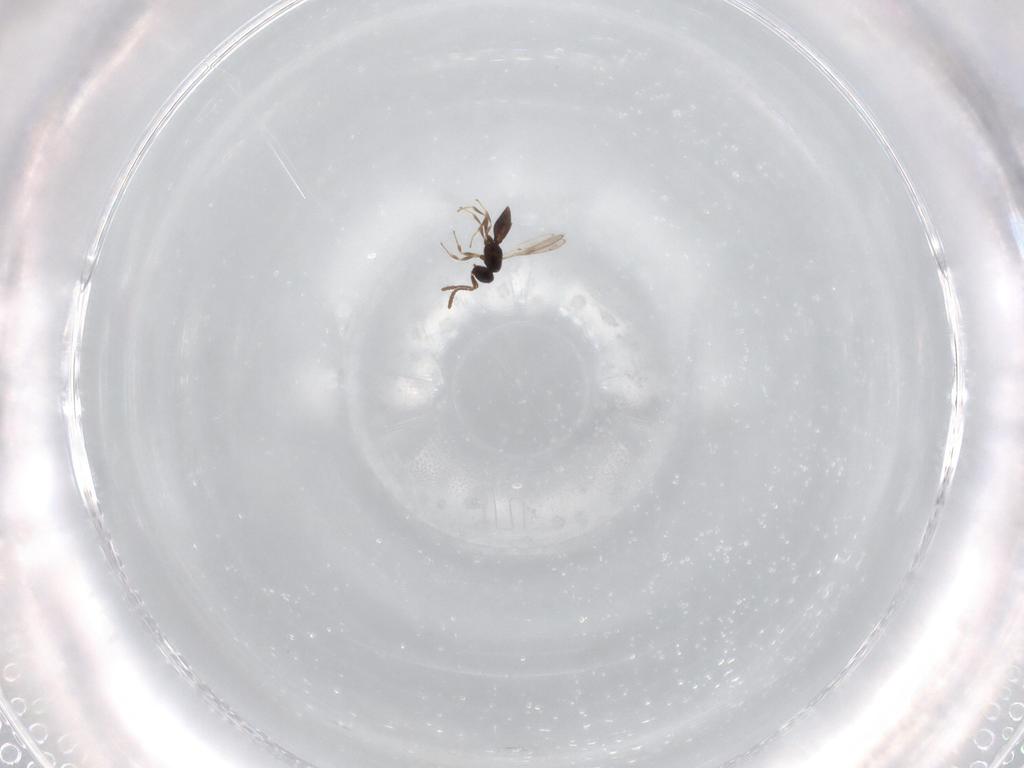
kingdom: Animalia
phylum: Arthropoda
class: Insecta
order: Hymenoptera
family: Scelionidae
